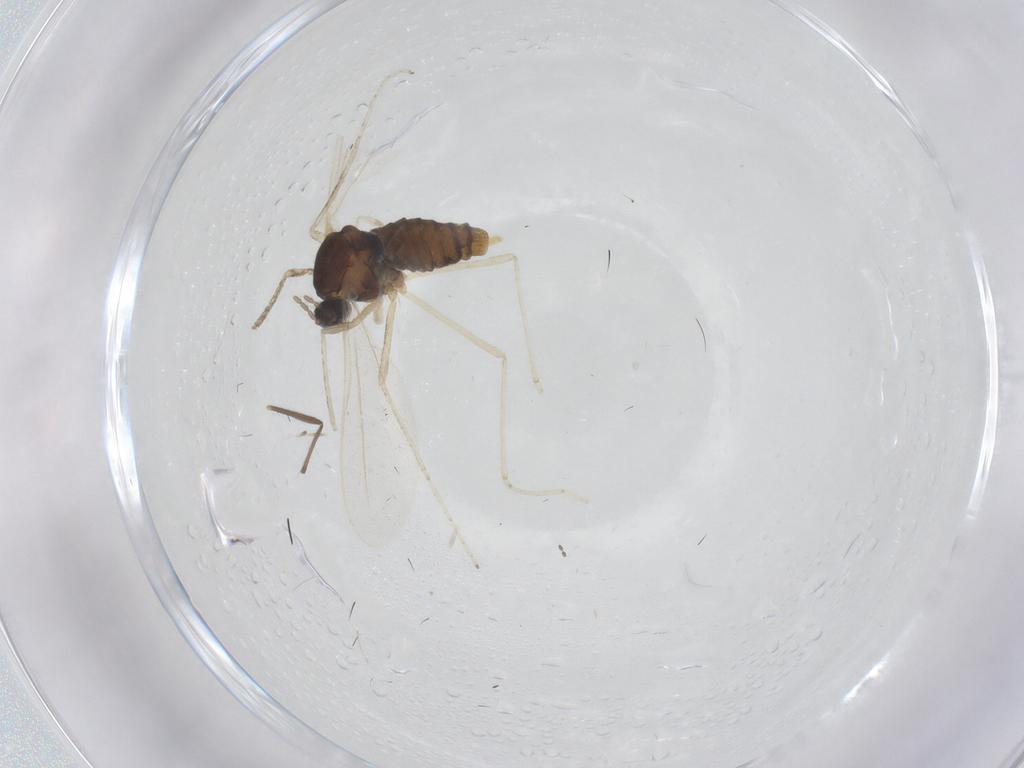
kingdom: Animalia
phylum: Arthropoda
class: Insecta
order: Diptera
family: Cecidomyiidae
